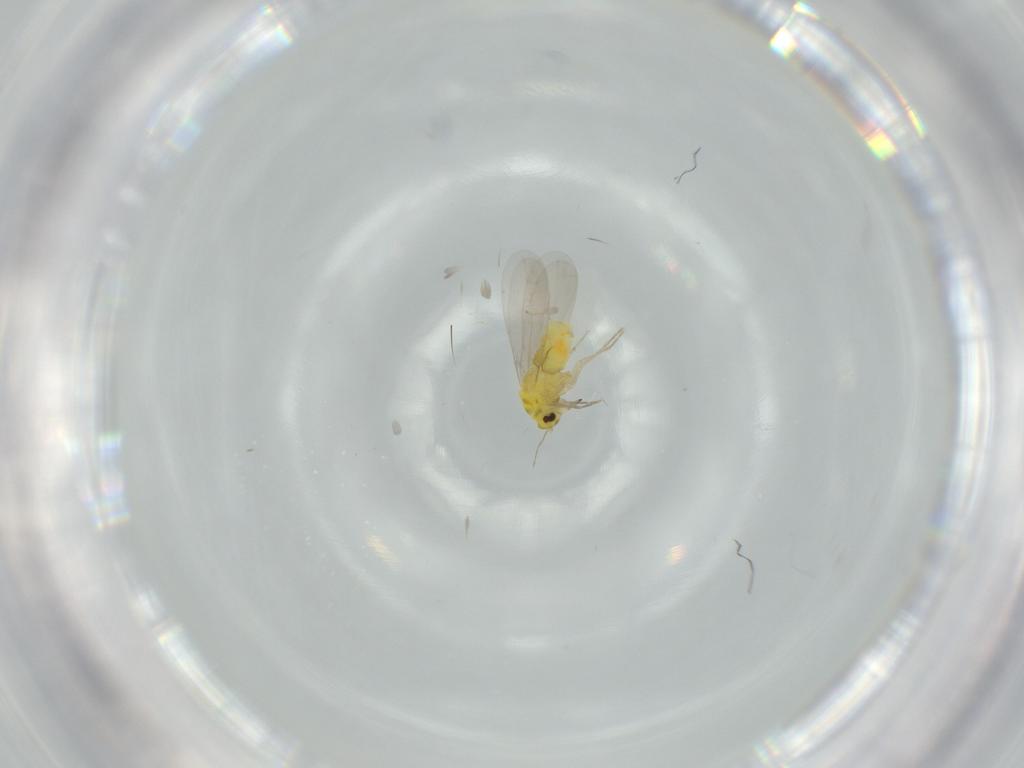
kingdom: Animalia
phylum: Arthropoda
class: Insecta
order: Hemiptera
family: Aleyrodidae
